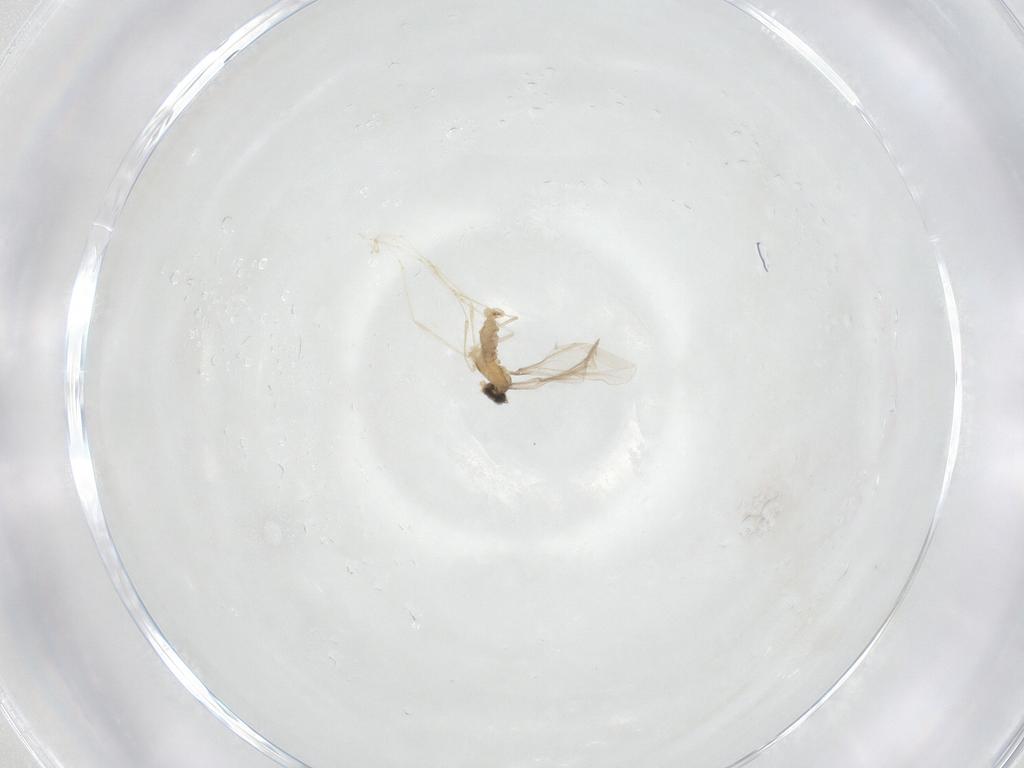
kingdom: Animalia
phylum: Arthropoda
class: Insecta
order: Diptera
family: Cecidomyiidae
